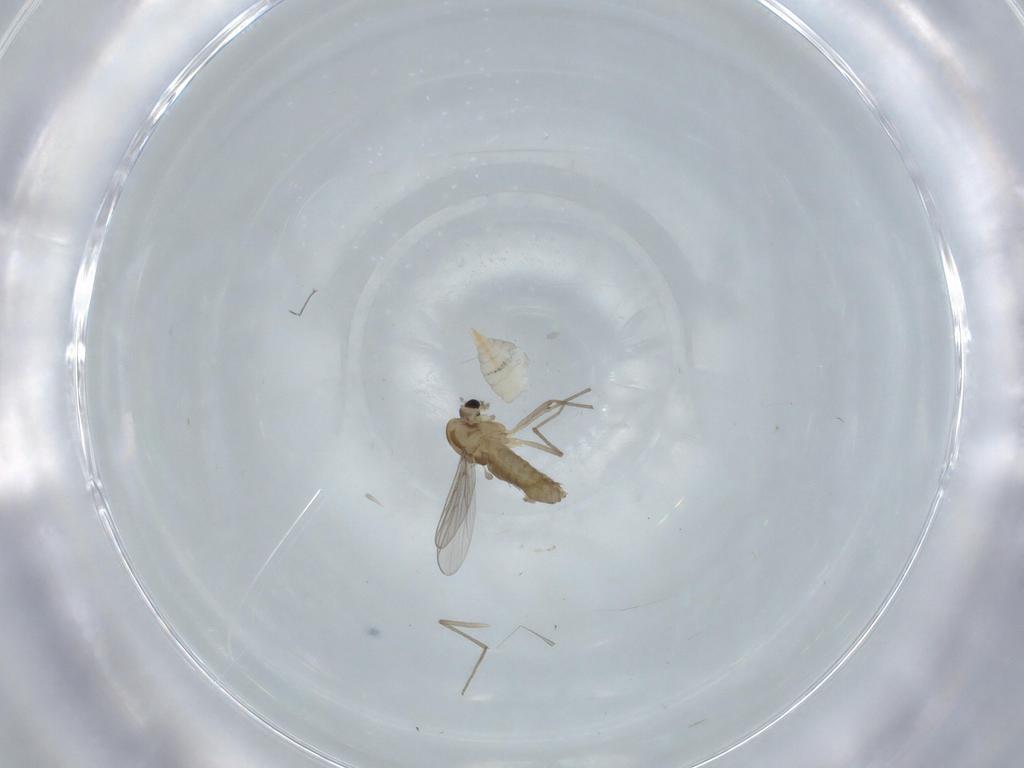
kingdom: Animalia
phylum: Arthropoda
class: Insecta
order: Diptera
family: Cecidomyiidae
